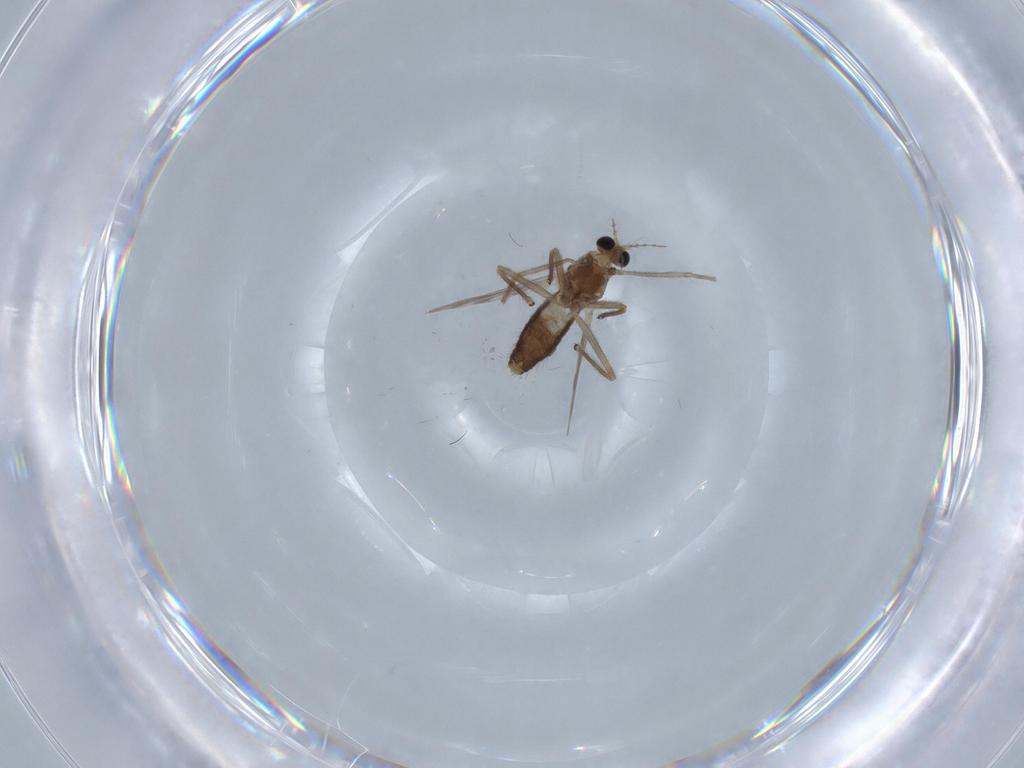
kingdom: Animalia
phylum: Arthropoda
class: Insecta
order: Diptera
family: Chironomidae
